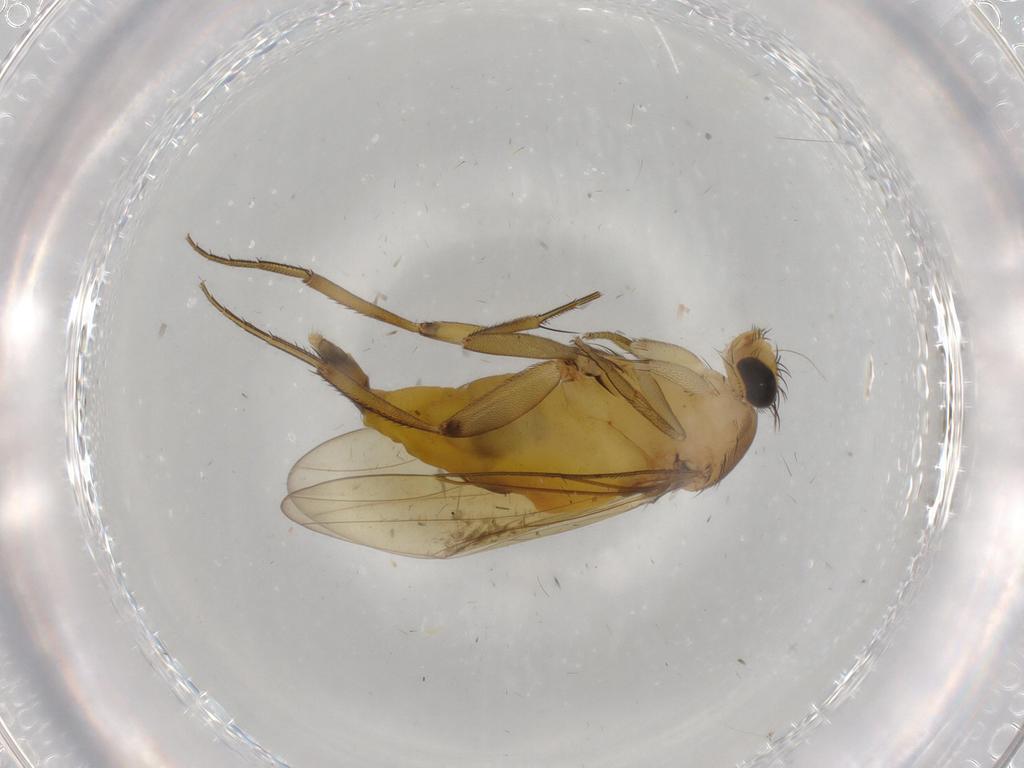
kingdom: Animalia
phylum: Arthropoda
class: Insecta
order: Diptera
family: Phoridae
